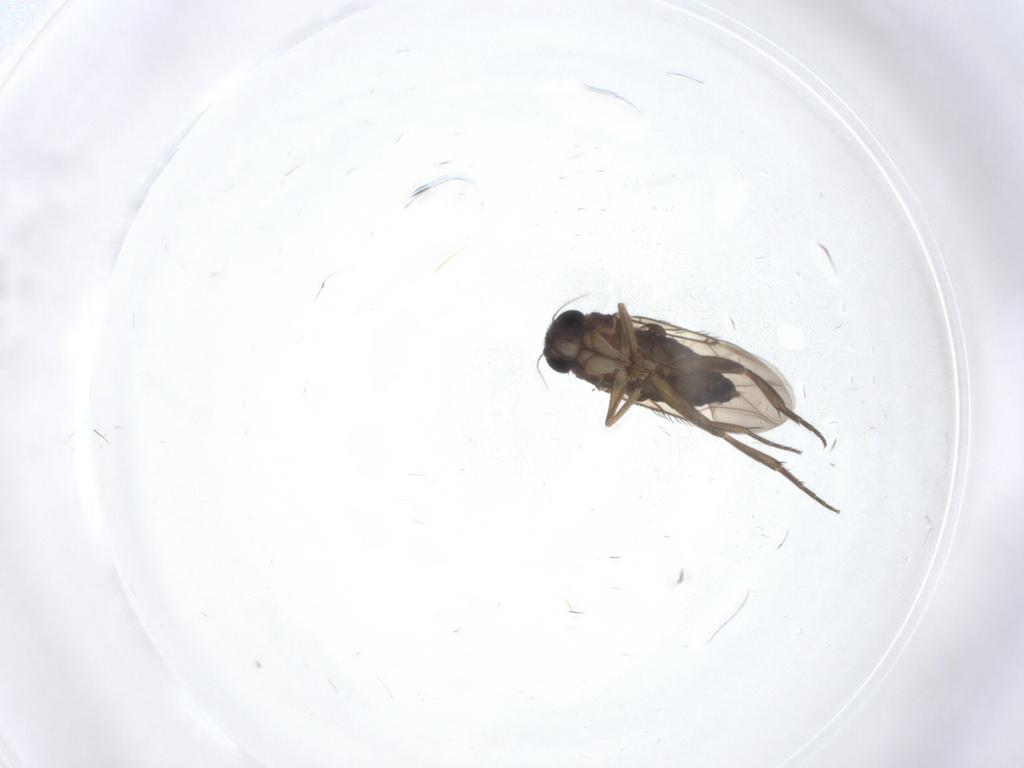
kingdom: Animalia
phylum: Arthropoda
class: Insecta
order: Diptera
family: Phoridae
